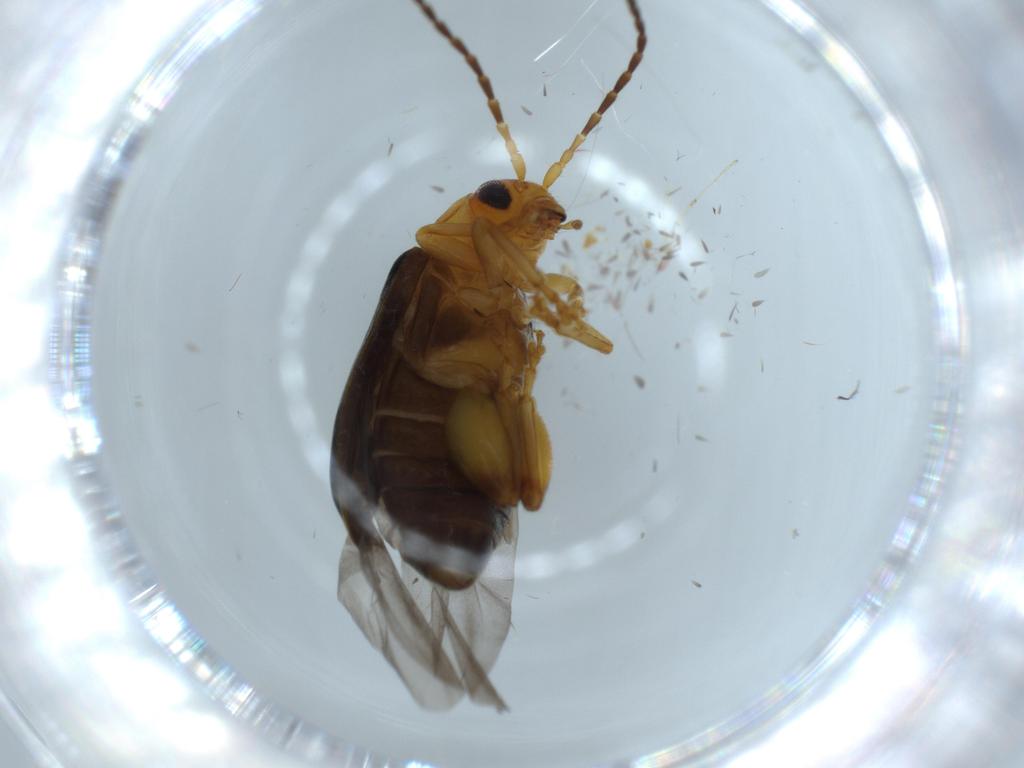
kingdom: Animalia
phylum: Arthropoda
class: Insecta
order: Coleoptera
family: Chrysomelidae
